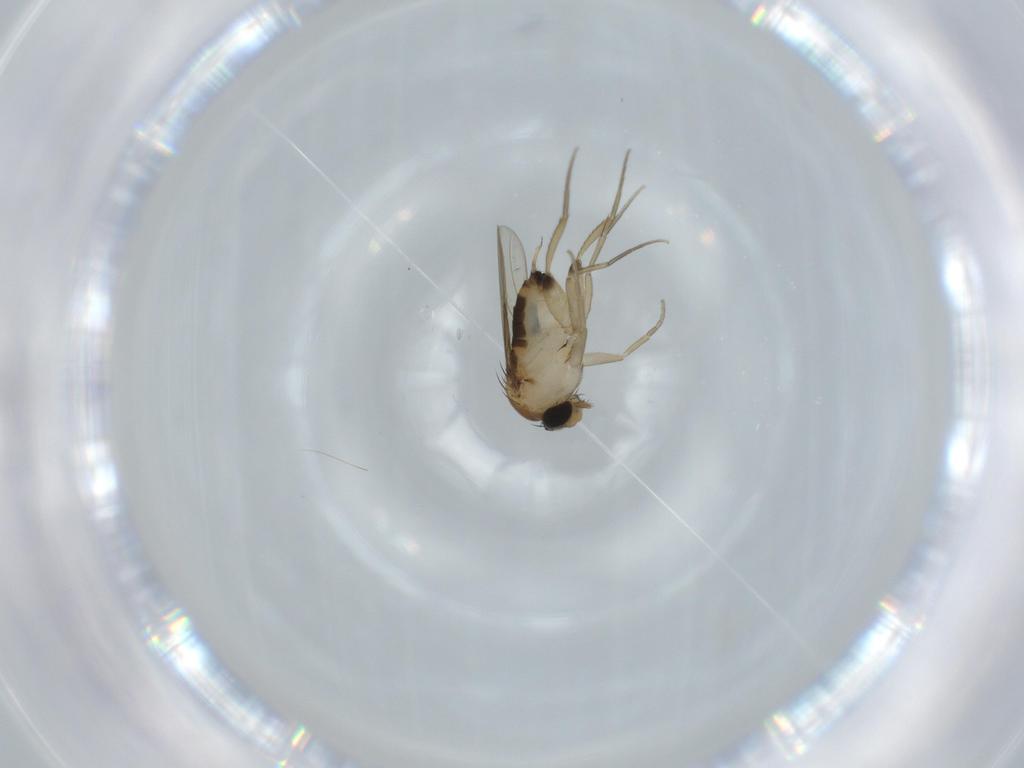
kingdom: Animalia
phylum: Arthropoda
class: Insecta
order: Diptera
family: Phoridae
